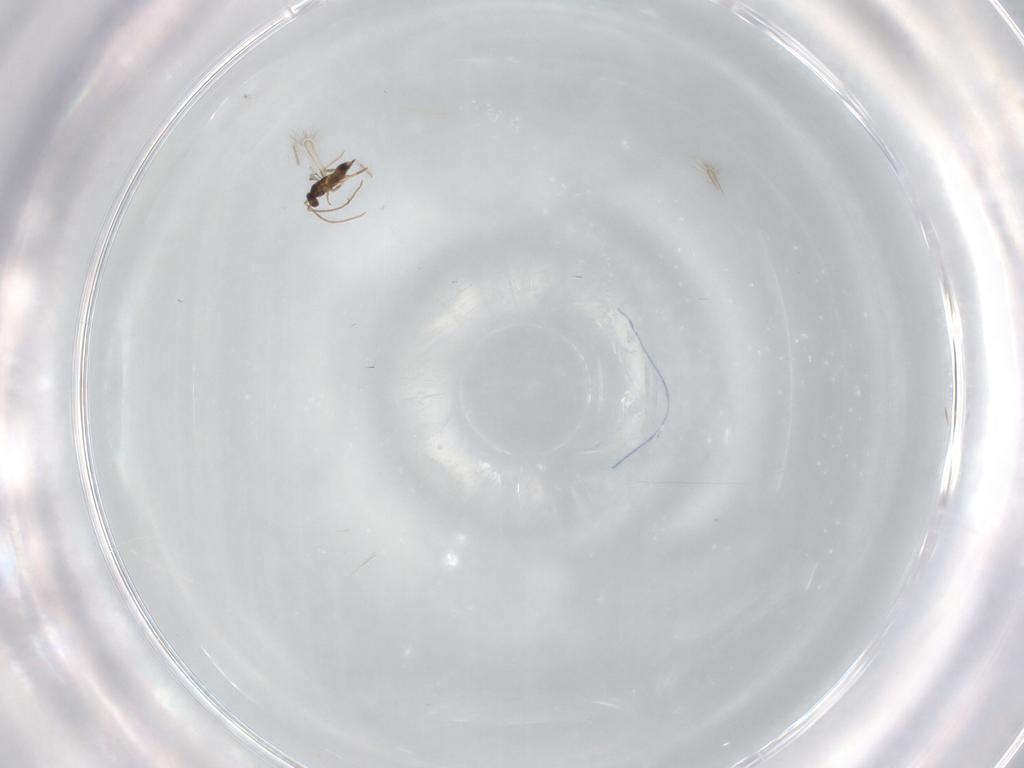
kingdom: Animalia
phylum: Arthropoda
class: Insecta
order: Hymenoptera
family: Mymaridae
